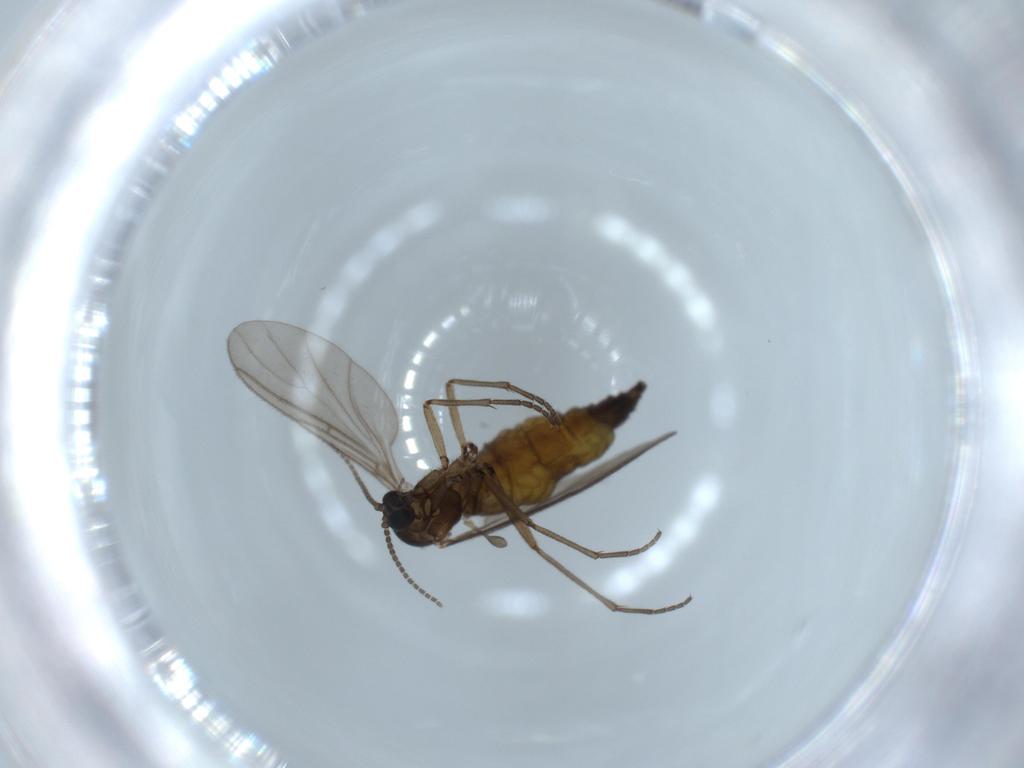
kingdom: Animalia
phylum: Arthropoda
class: Insecta
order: Diptera
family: Sciaridae
